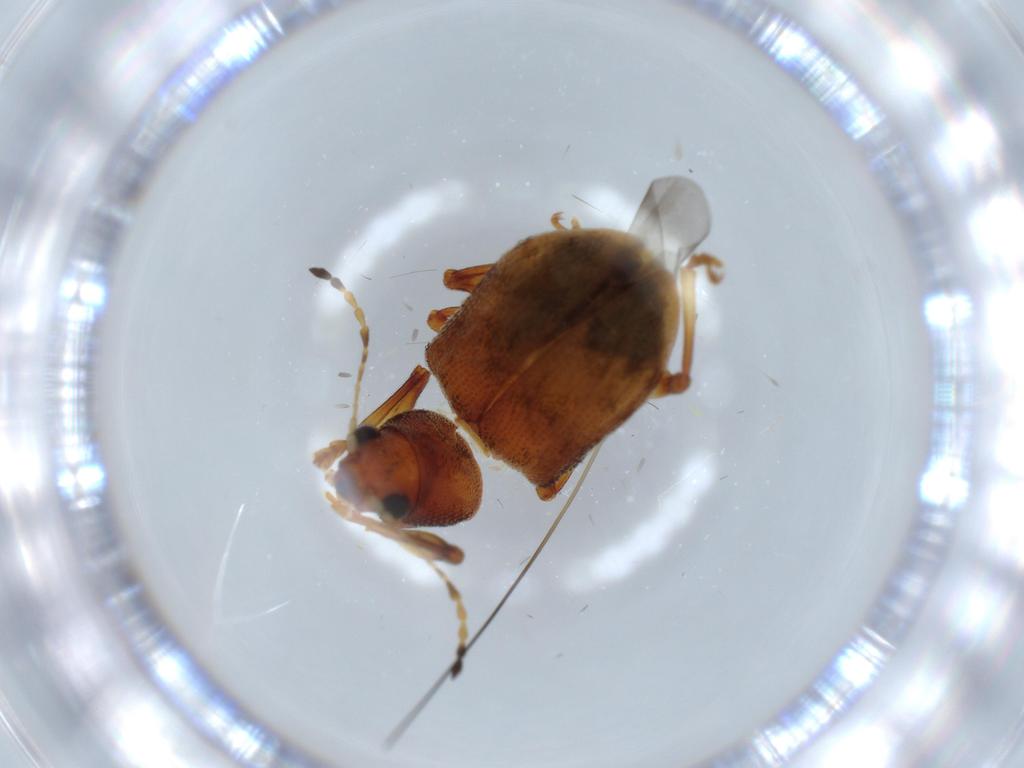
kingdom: Animalia
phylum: Arthropoda
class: Insecta
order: Coleoptera
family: Chrysomelidae
